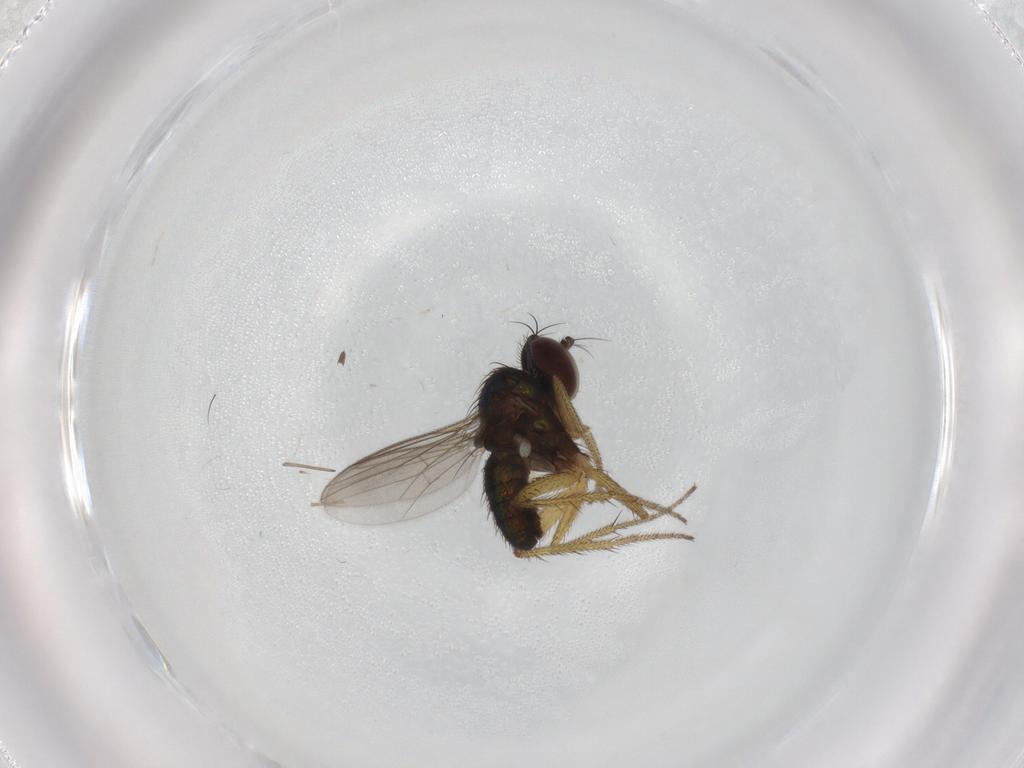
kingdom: Animalia
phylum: Arthropoda
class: Insecta
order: Diptera
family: Dolichopodidae
